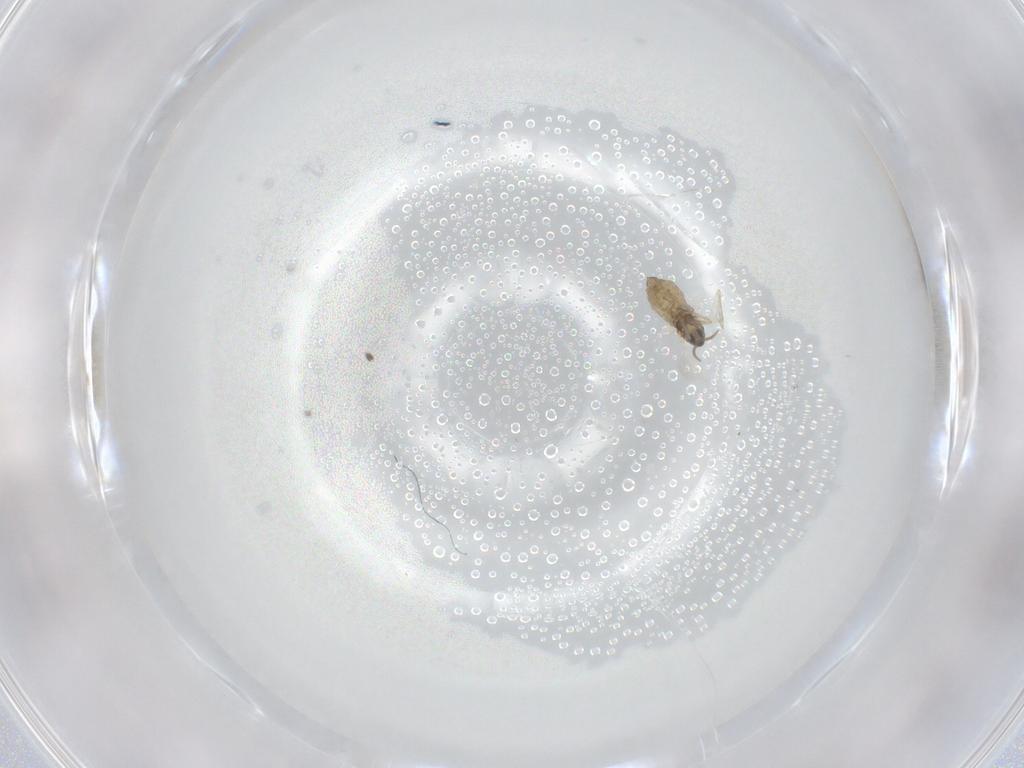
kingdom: Animalia
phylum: Arthropoda
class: Insecta
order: Diptera
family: Cecidomyiidae
